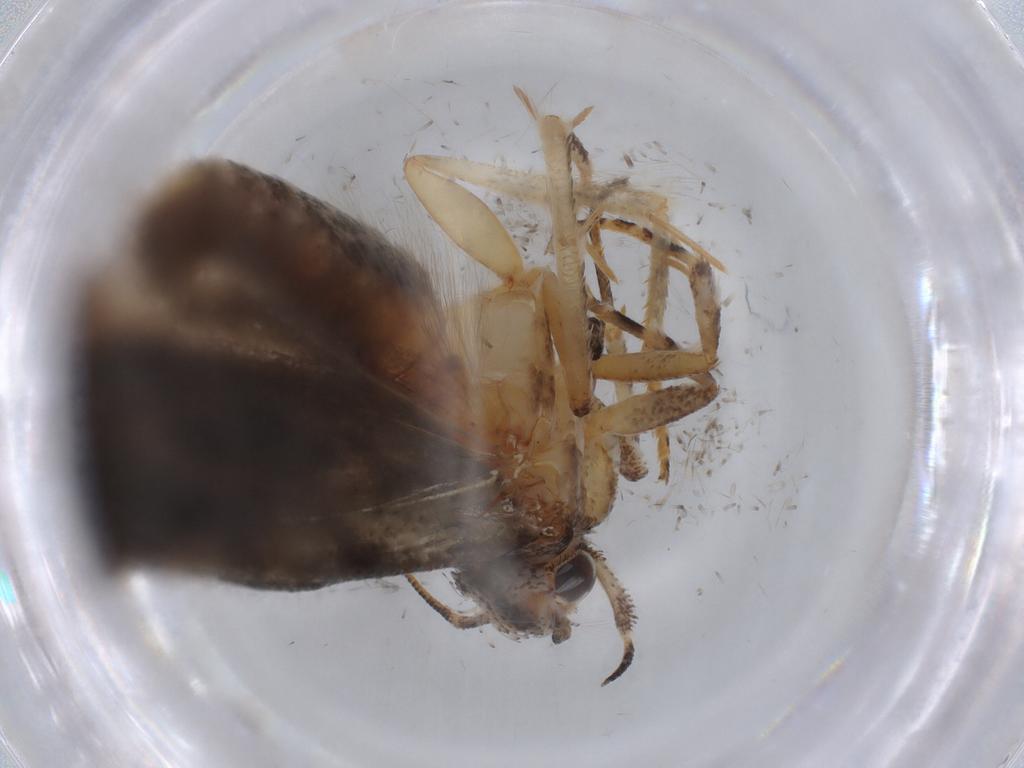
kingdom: Animalia
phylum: Arthropoda
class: Insecta
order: Lepidoptera
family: Gelechiidae
